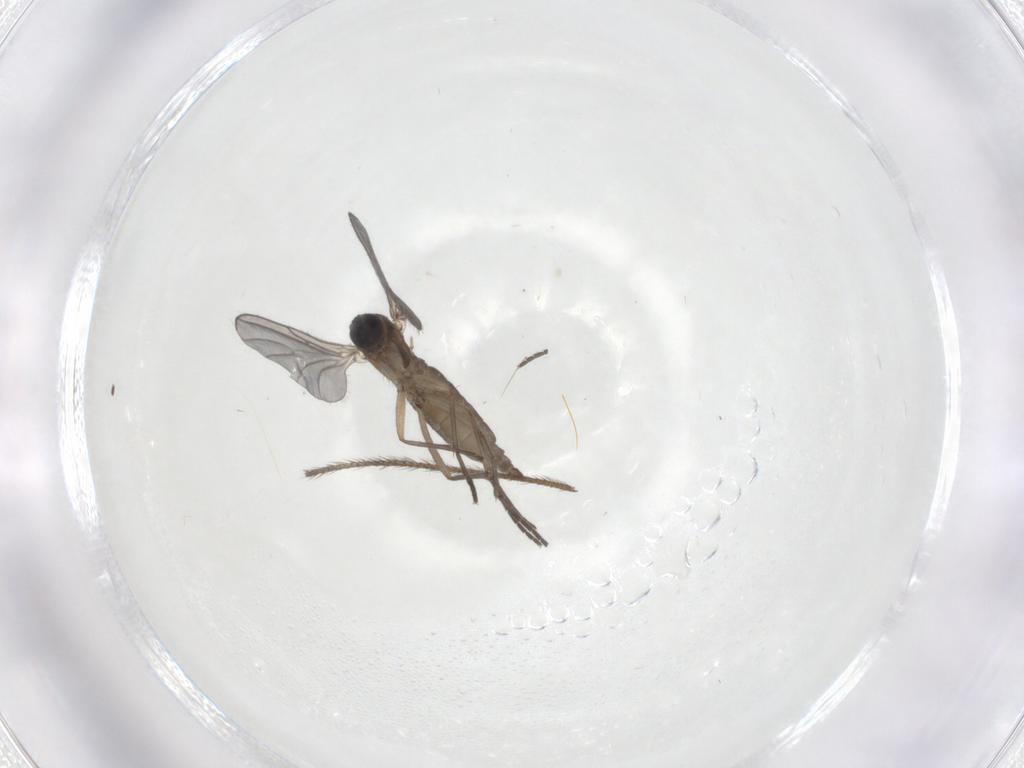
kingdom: Animalia
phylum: Arthropoda
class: Insecta
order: Diptera
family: Sciaridae
